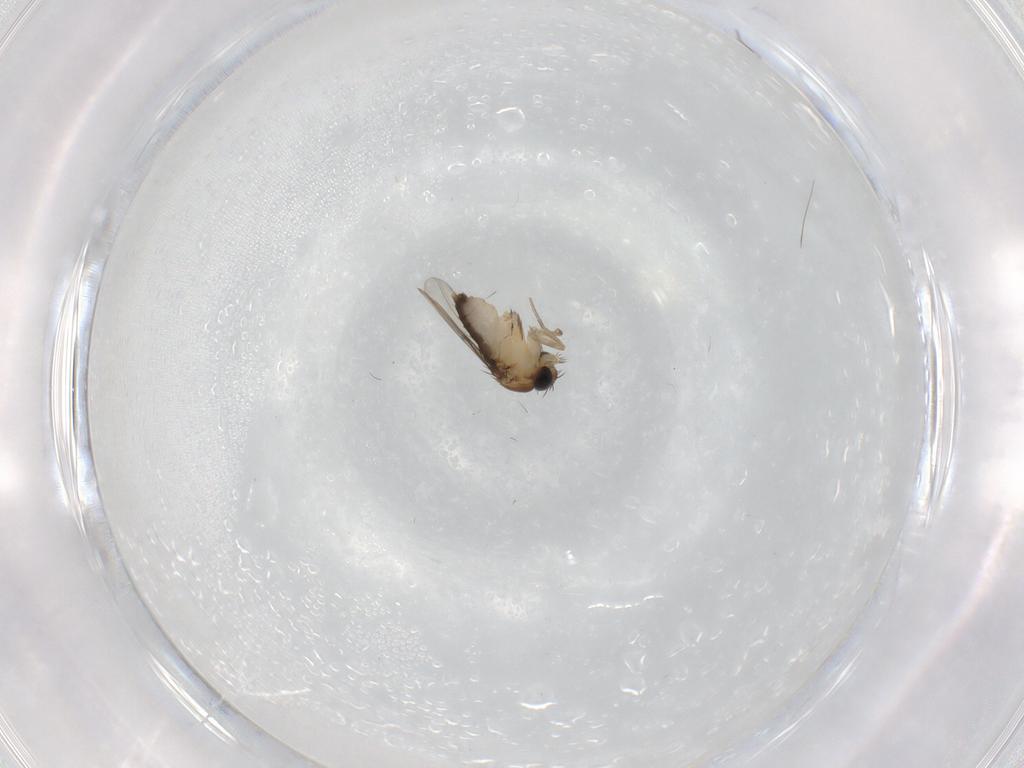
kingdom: Animalia
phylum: Arthropoda
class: Insecta
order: Diptera
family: Phoridae
